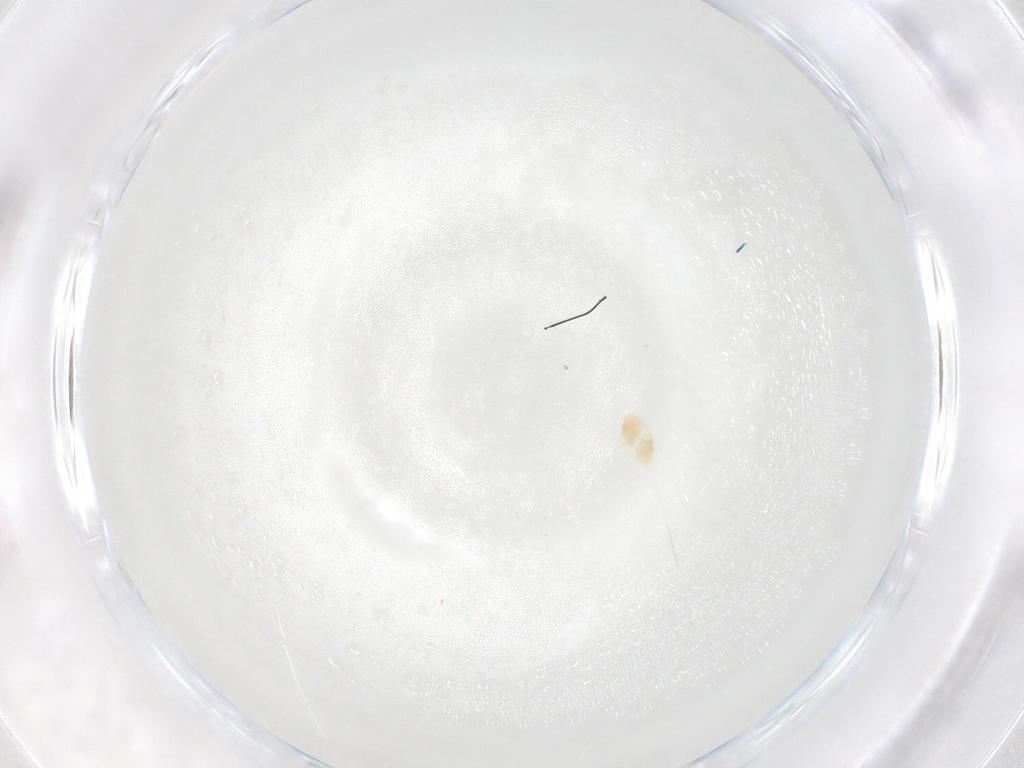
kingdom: Animalia
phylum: Arthropoda
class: Arachnida
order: Trombidiformes
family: Eupodidae
